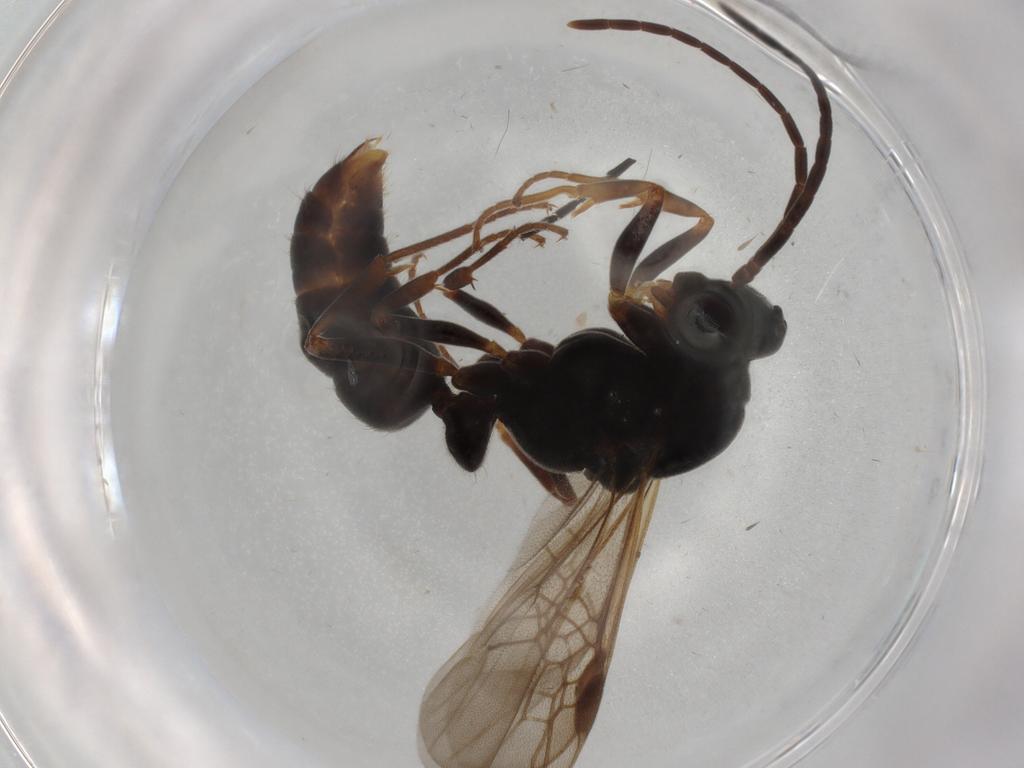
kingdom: Animalia
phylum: Arthropoda
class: Insecta
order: Hymenoptera
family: Formicidae
